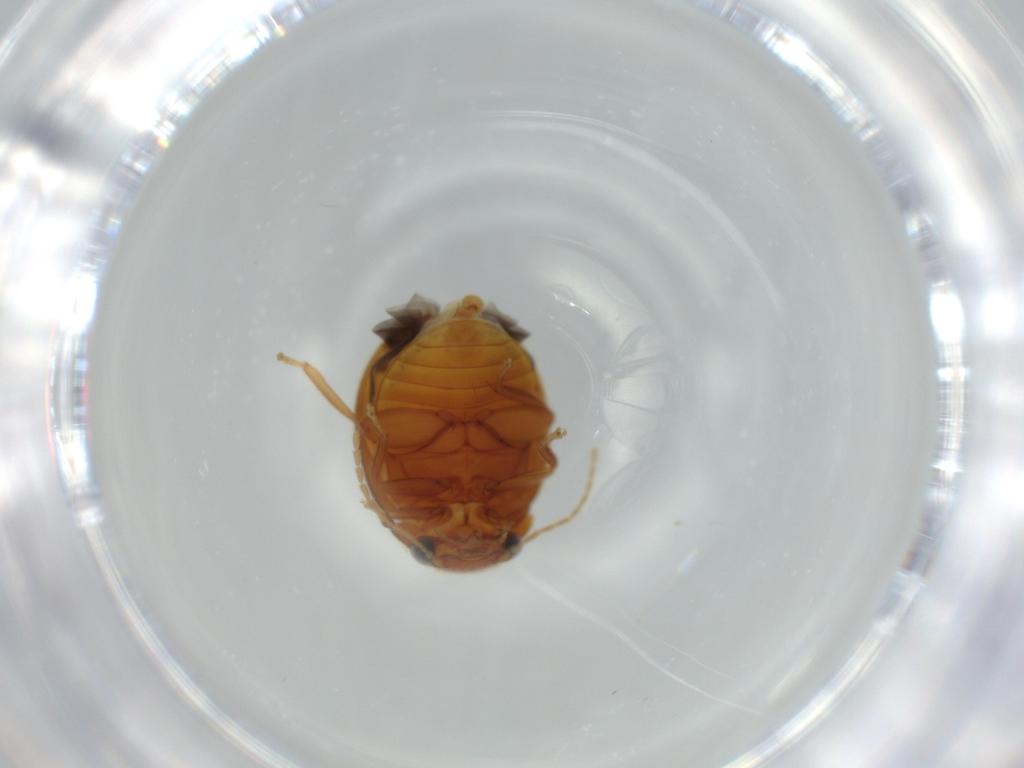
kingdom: Animalia
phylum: Arthropoda
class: Insecta
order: Coleoptera
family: Scirtidae
